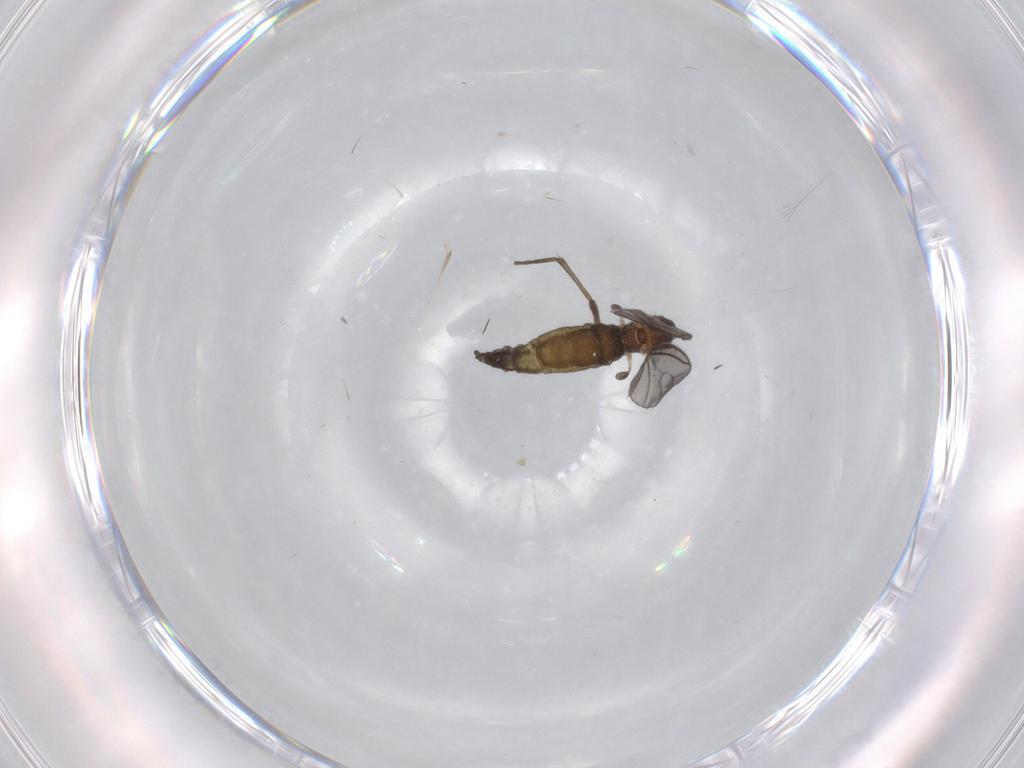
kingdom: Animalia
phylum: Arthropoda
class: Insecta
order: Diptera
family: Sciaridae
